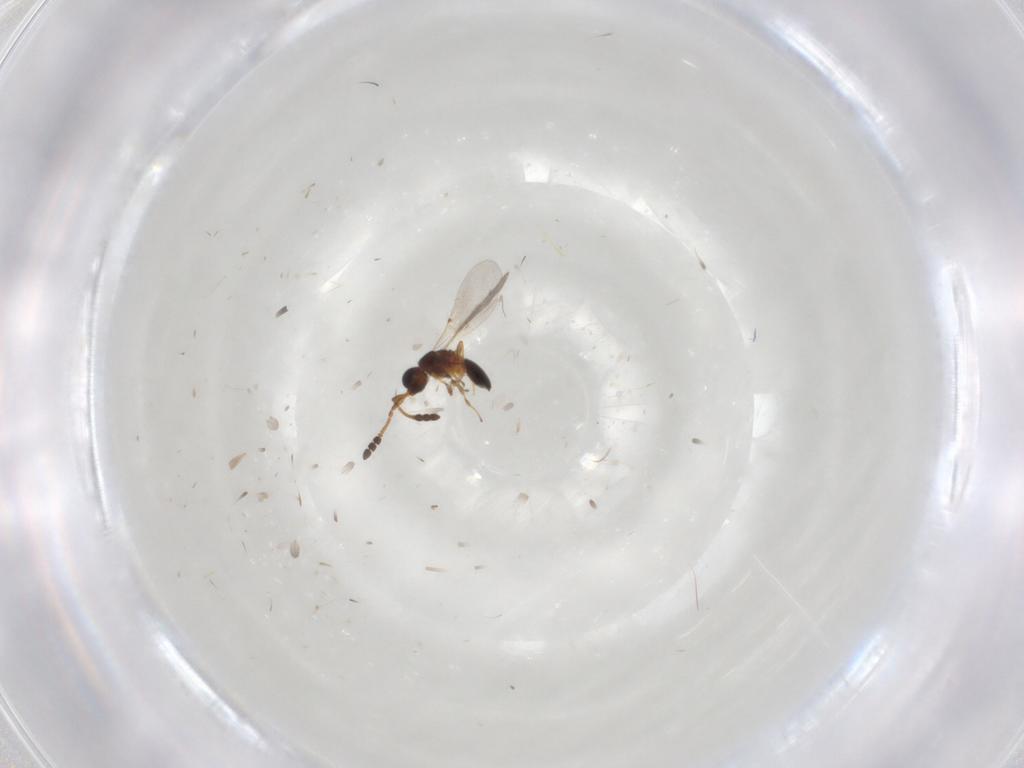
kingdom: Animalia
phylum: Arthropoda
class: Insecta
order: Hymenoptera
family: Diapriidae
